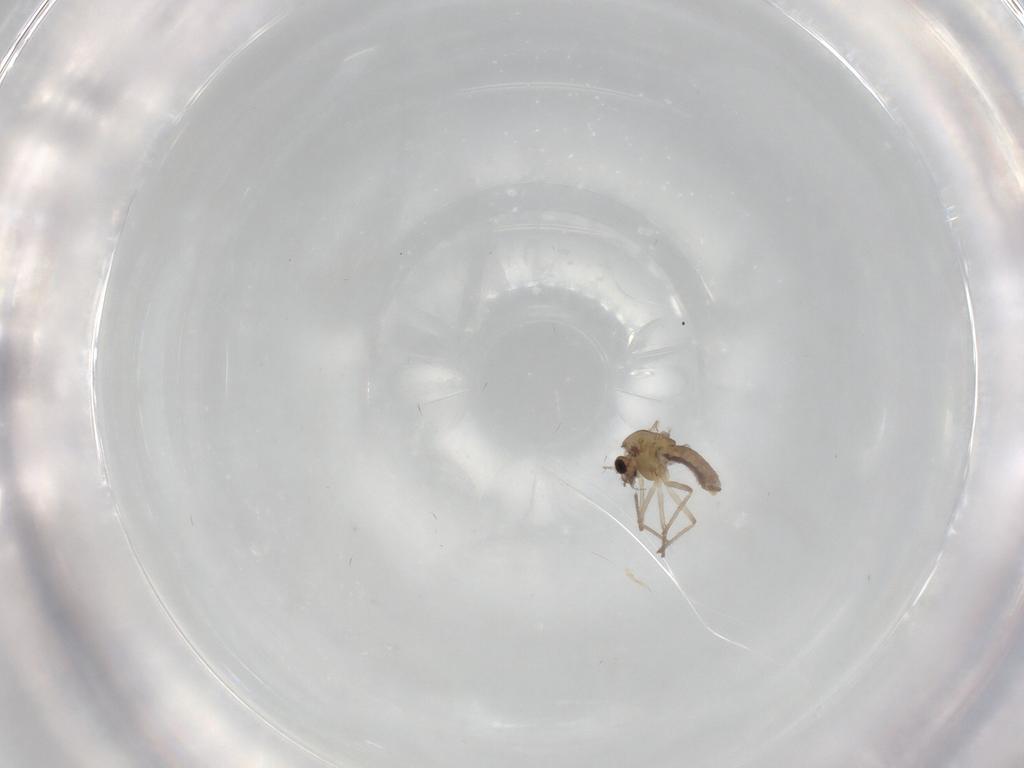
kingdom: Animalia
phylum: Arthropoda
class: Insecta
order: Diptera
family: Chironomidae
